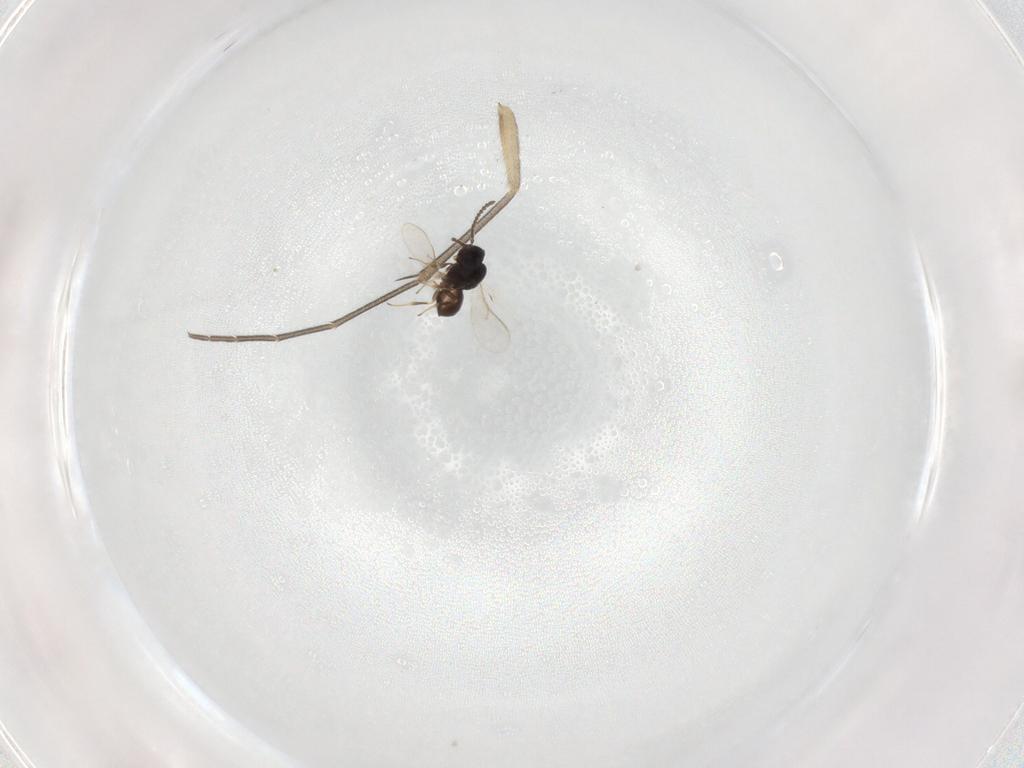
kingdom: Animalia
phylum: Arthropoda
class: Insecta
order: Hymenoptera
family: Scelionidae
